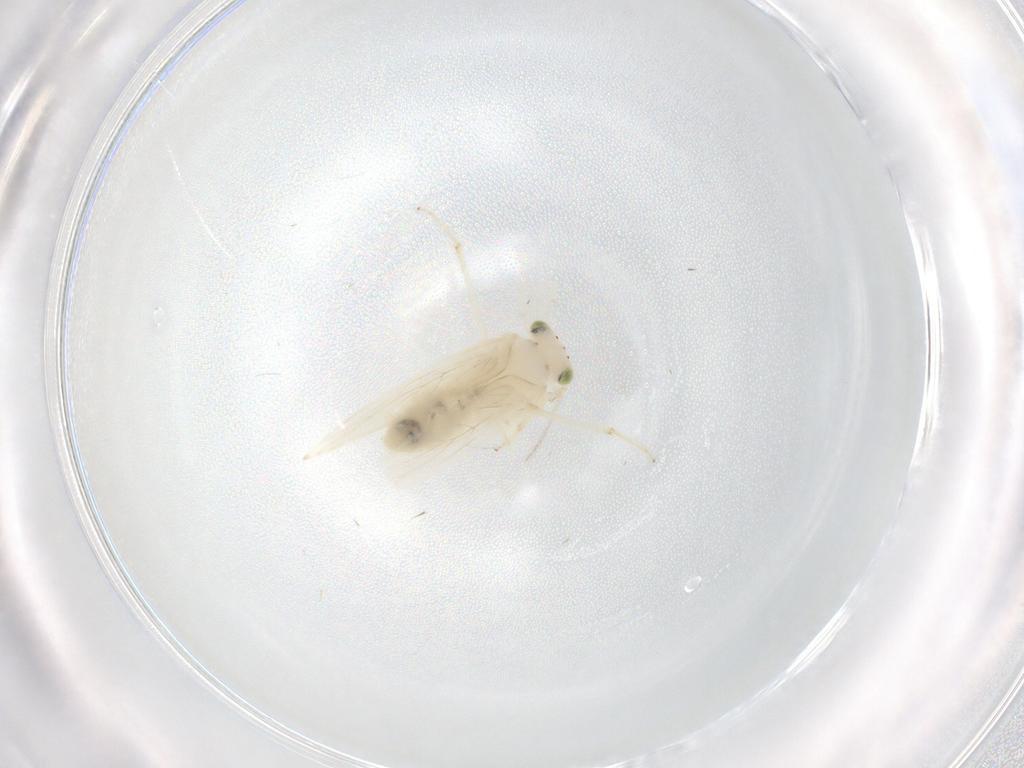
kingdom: Animalia
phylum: Arthropoda
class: Insecta
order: Psocodea
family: Lepidopsocidae
